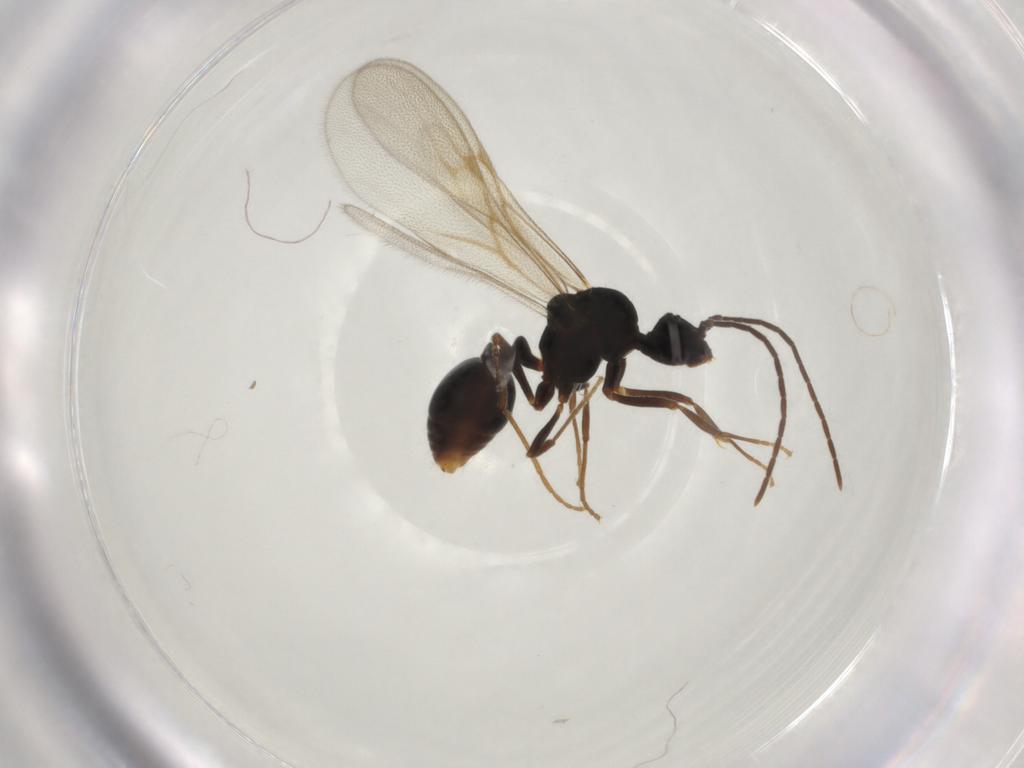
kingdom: Animalia
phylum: Arthropoda
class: Insecta
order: Hymenoptera
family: Formicidae
